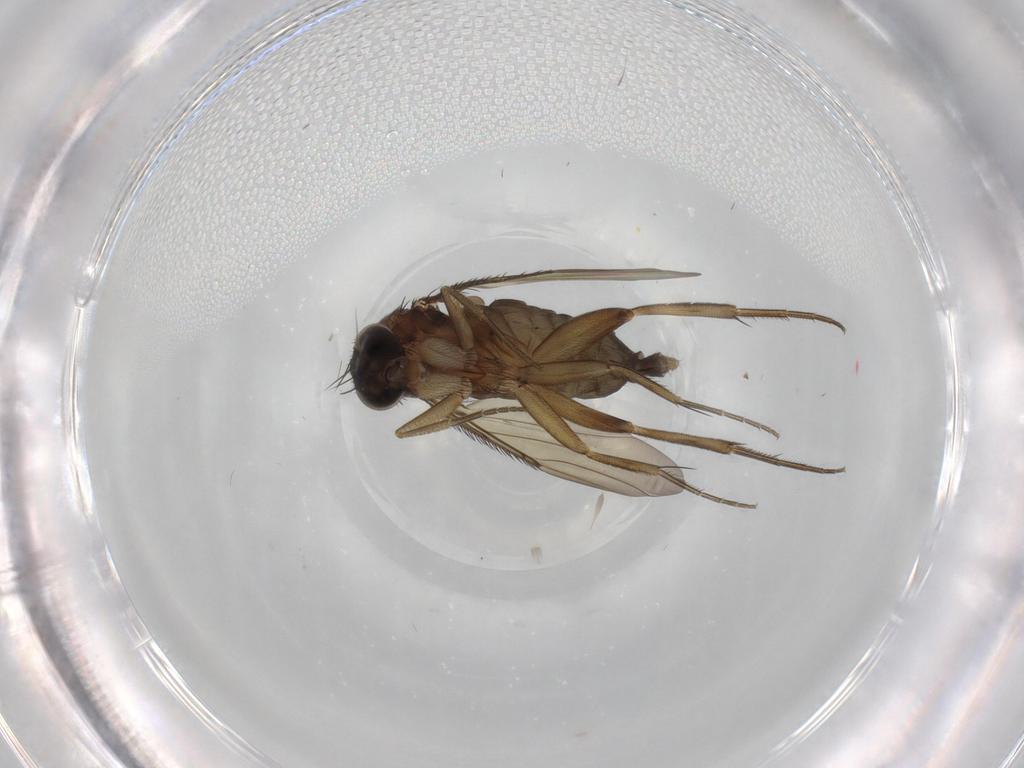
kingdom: Animalia
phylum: Arthropoda
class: Insecta
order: Diptera
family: Phoridae
